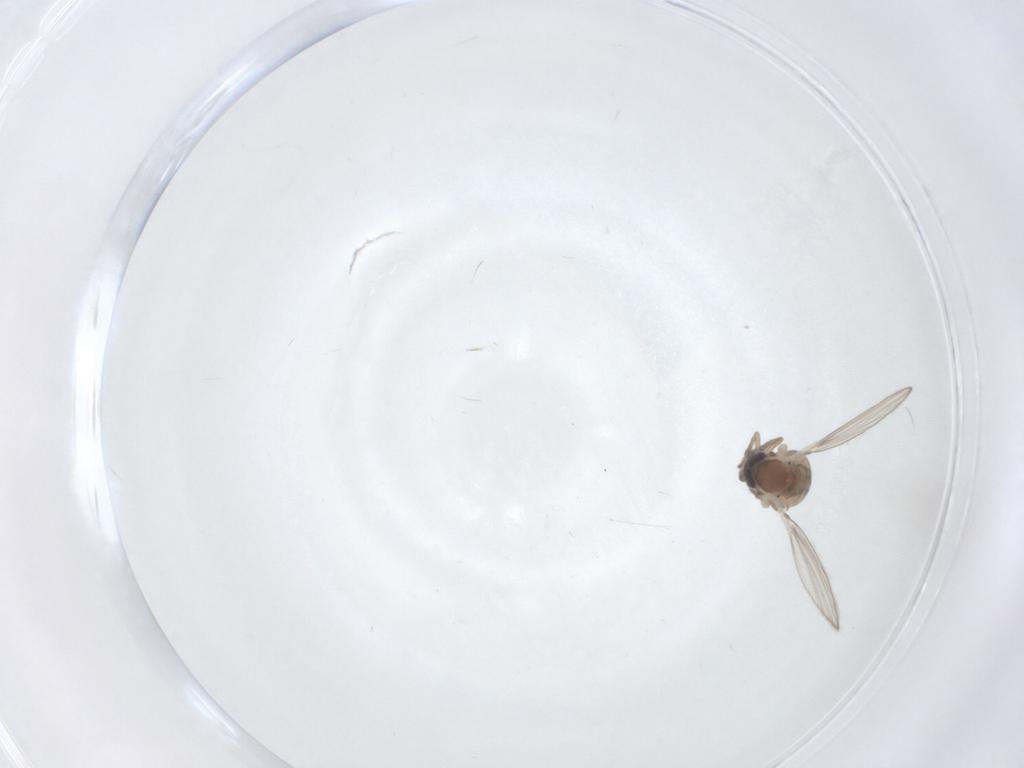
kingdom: Animalia
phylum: Arthropoda
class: Insecta
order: Diptera
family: Psychodidae
